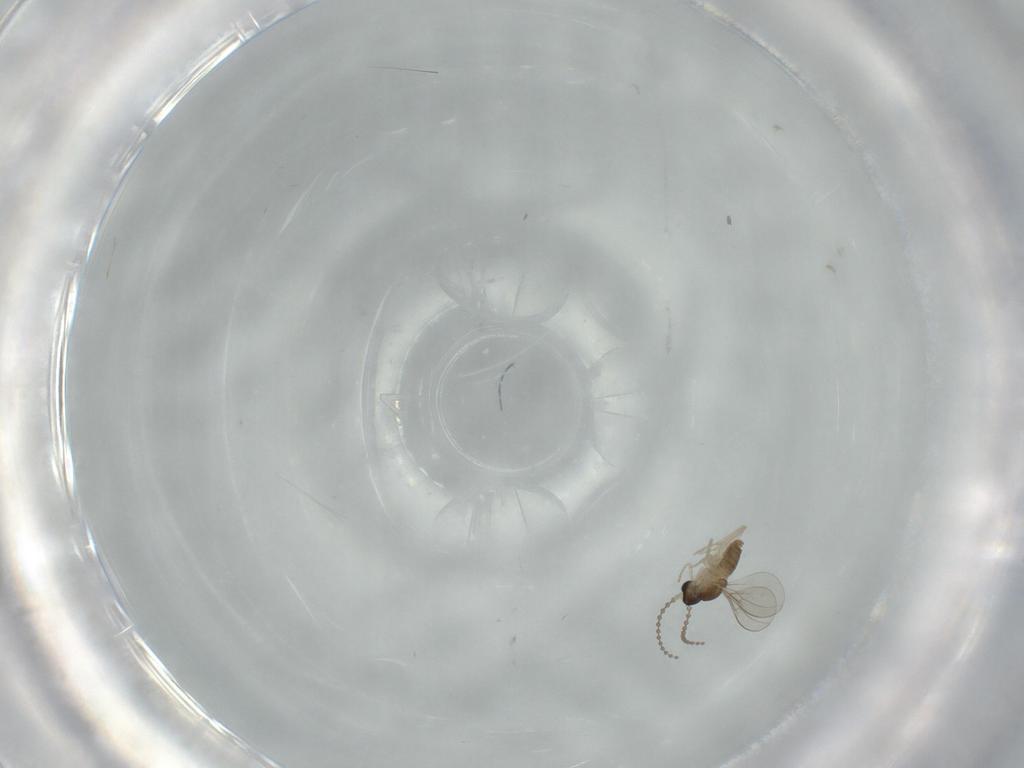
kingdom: Animalia
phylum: Arthropoda
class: Insecta
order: Diptera
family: Cecidomyiidae
